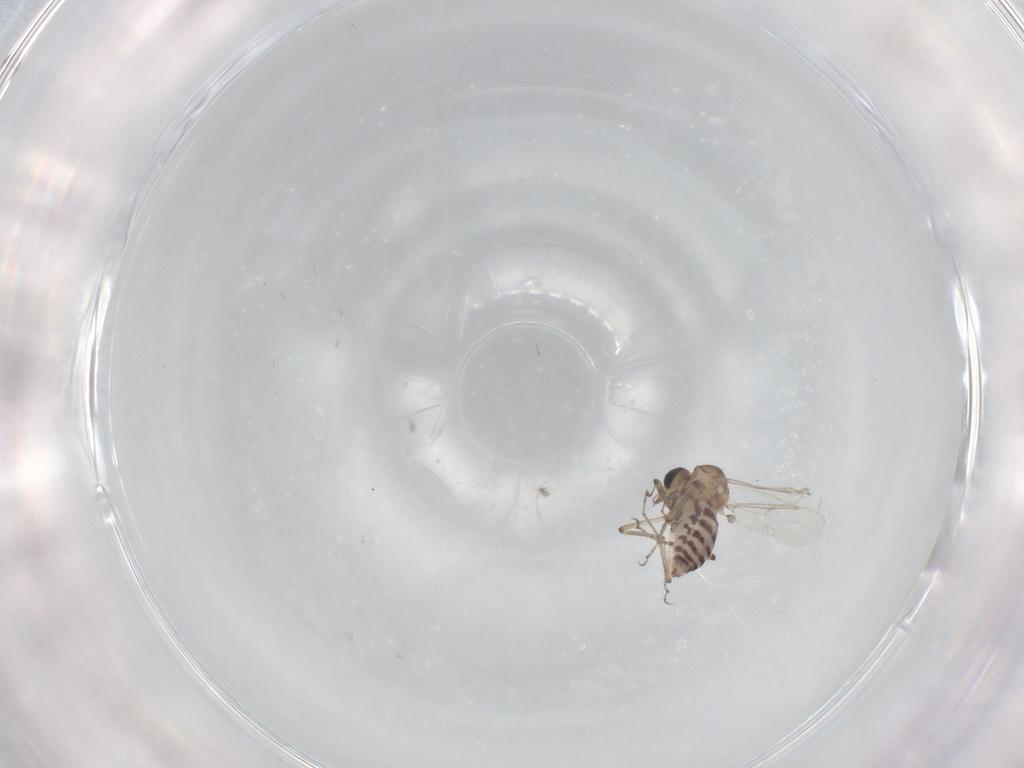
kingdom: Animalia
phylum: Arthropoda
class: Insecta
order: Diptera
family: Ceratopogonidae
